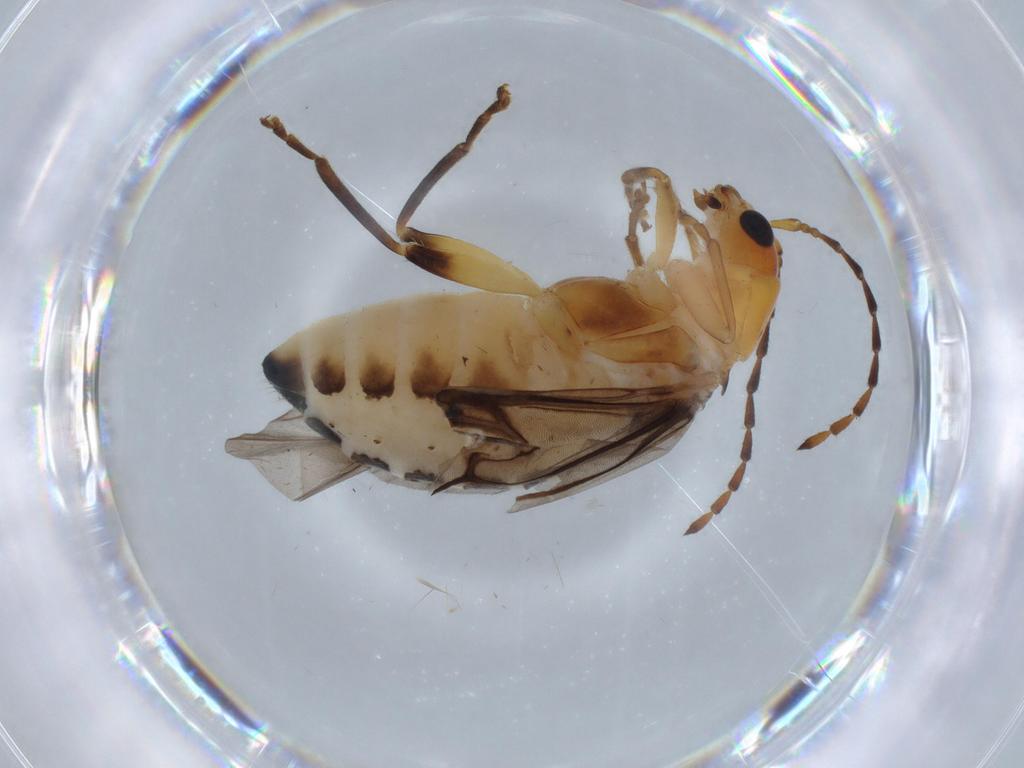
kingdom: Animalia
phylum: Arthropoda
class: Insecta
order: Coleoptera
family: Chrysomelidae
